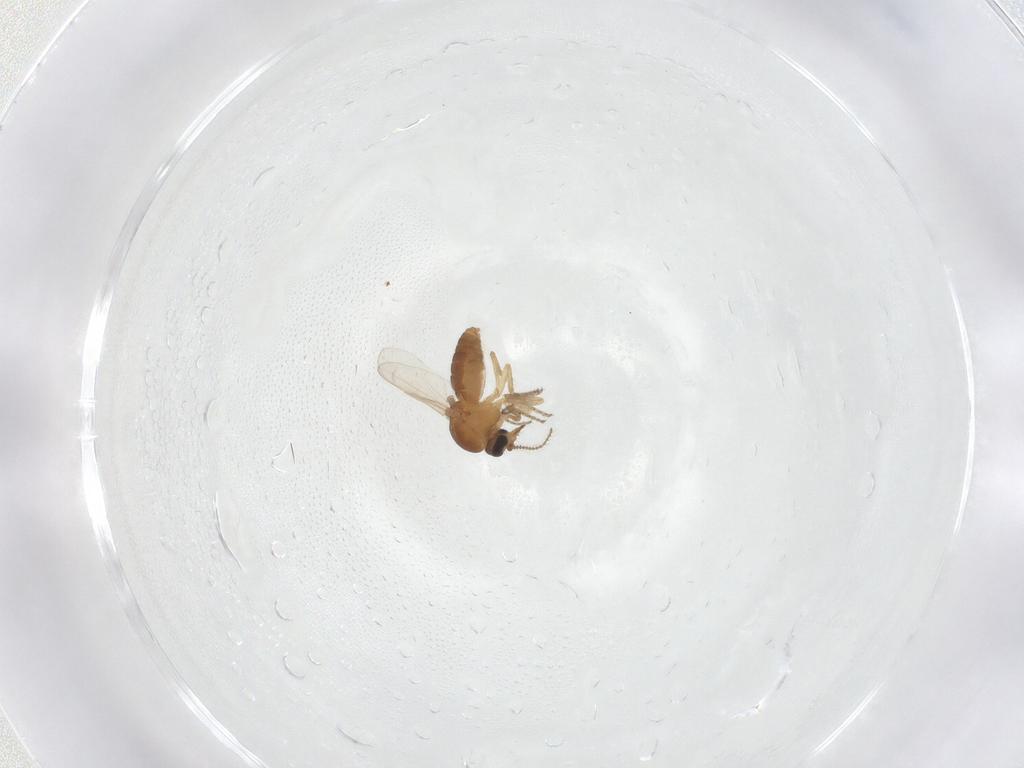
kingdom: Animalia
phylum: Arthropoda
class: Insecta
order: Diptera
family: Ceratopogonidae
